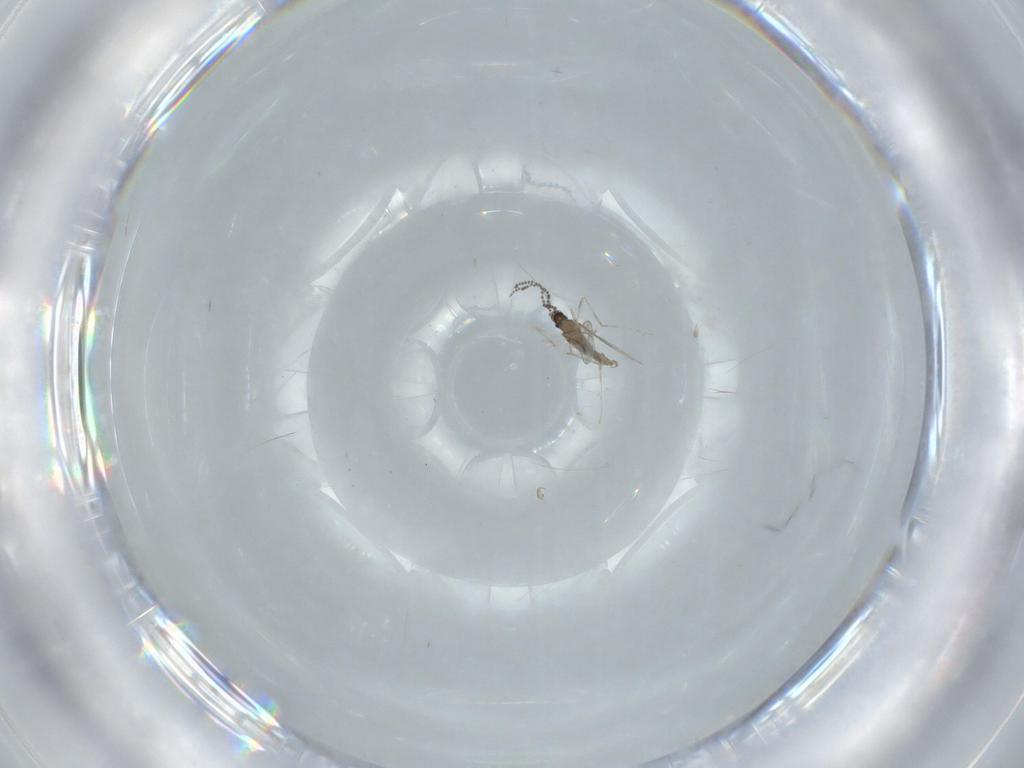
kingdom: Animalia
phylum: Arthropoda
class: Insecta
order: Diptera
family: Cecidomyiidae
